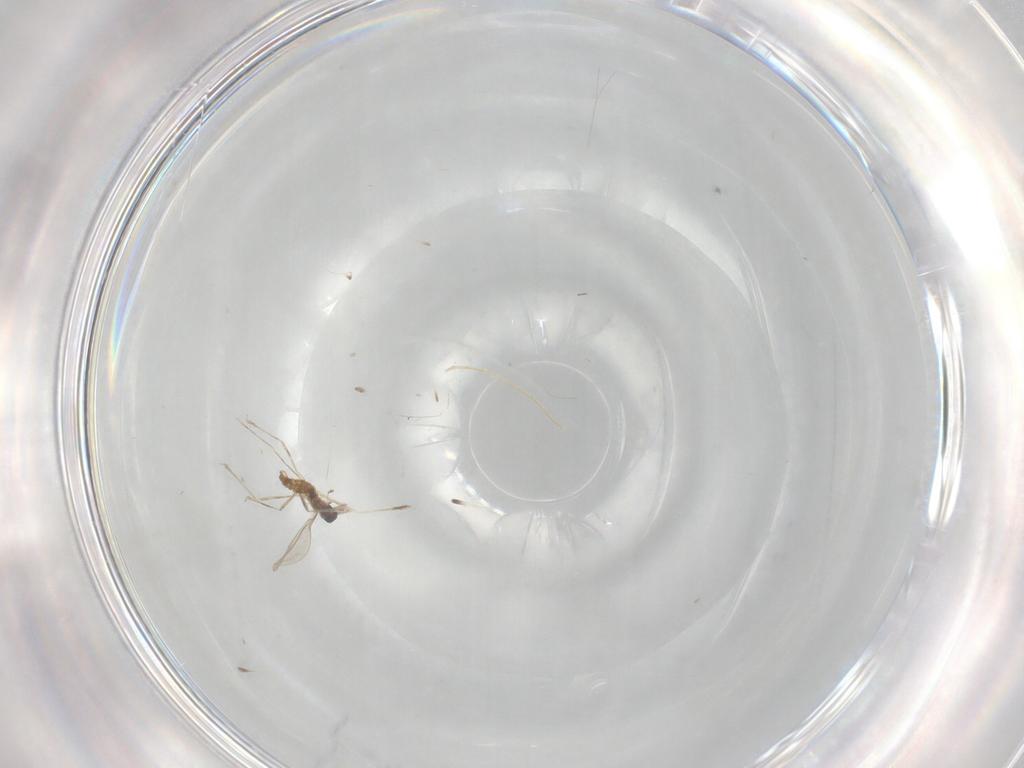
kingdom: Animalia
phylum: Arthropoda
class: Insecta
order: Diptera
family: Cecidomyiidae
